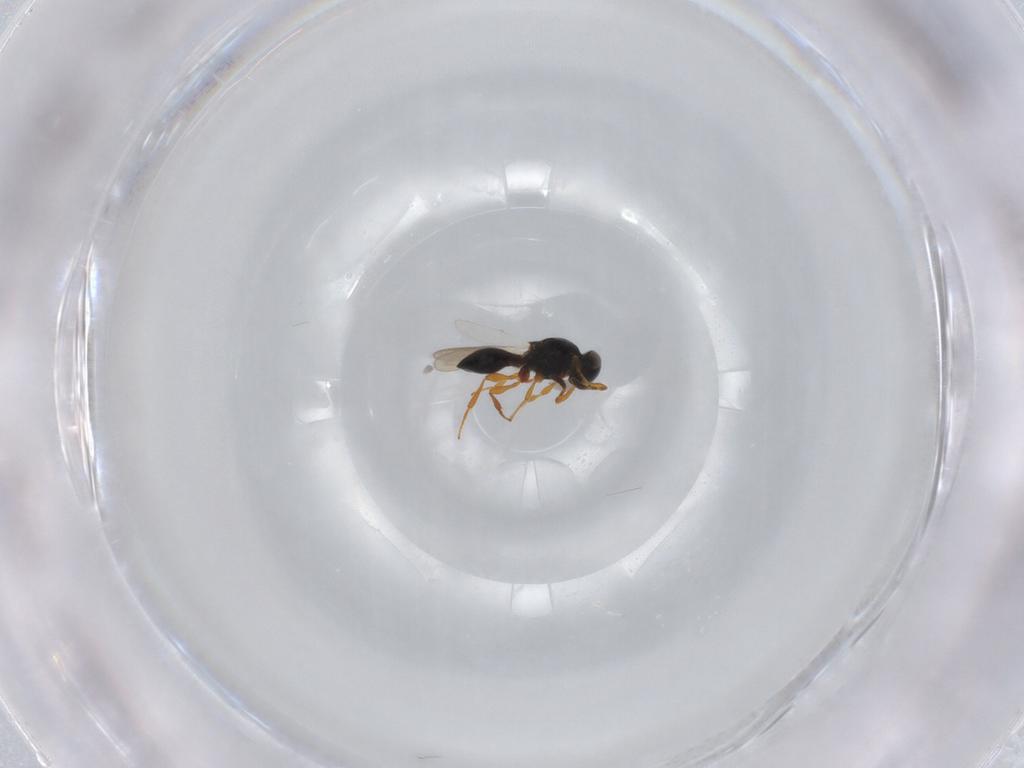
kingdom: Animalia
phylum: Arthropoda
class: Insecta
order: Hymenoptera
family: Platygastridae
